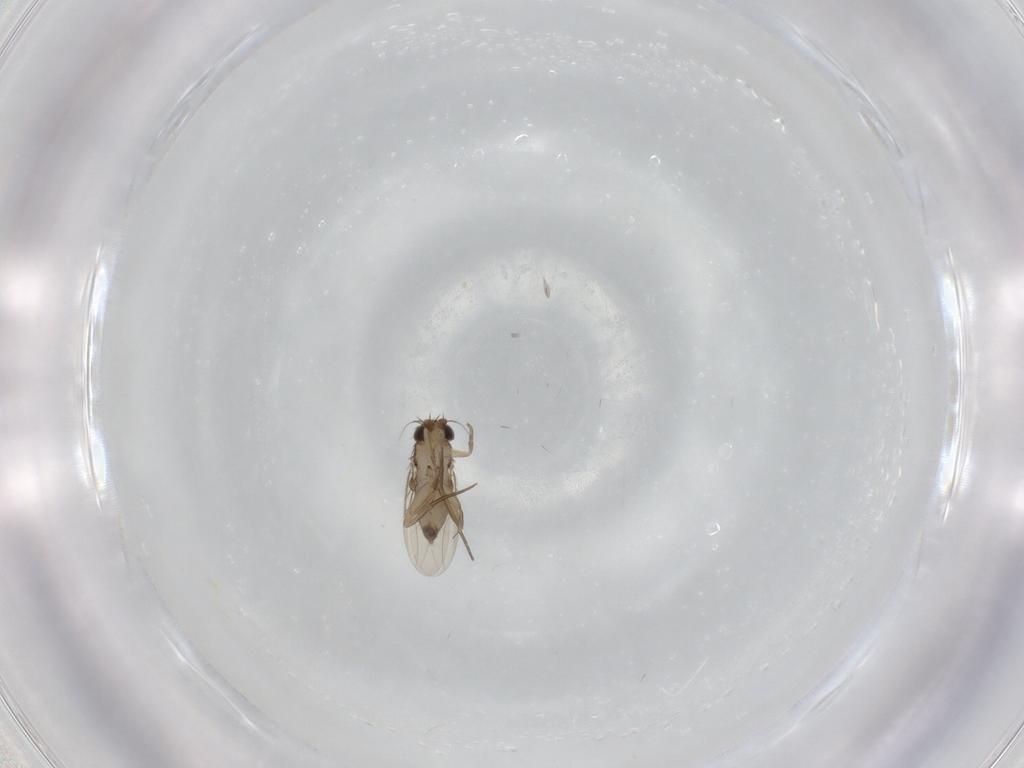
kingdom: Animalia
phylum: Arthropoda
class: Insecta
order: Diptera
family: Phoridae
